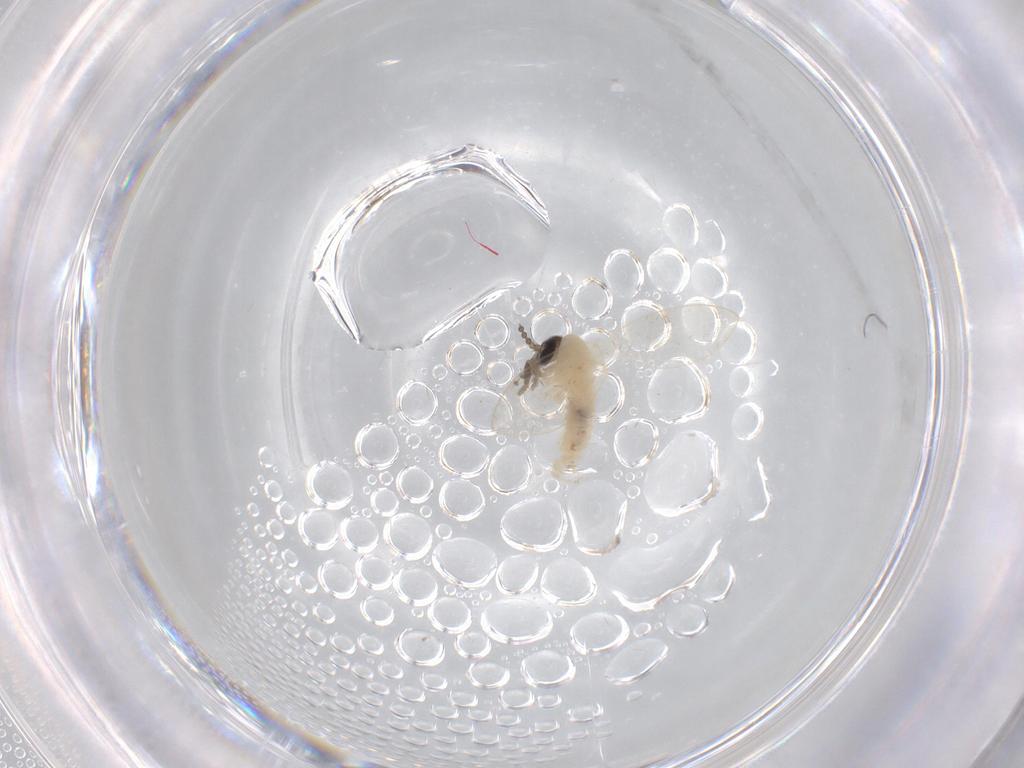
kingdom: Animalia
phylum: Arthropoda
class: Insecta
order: Diptera
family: Psychodidae
